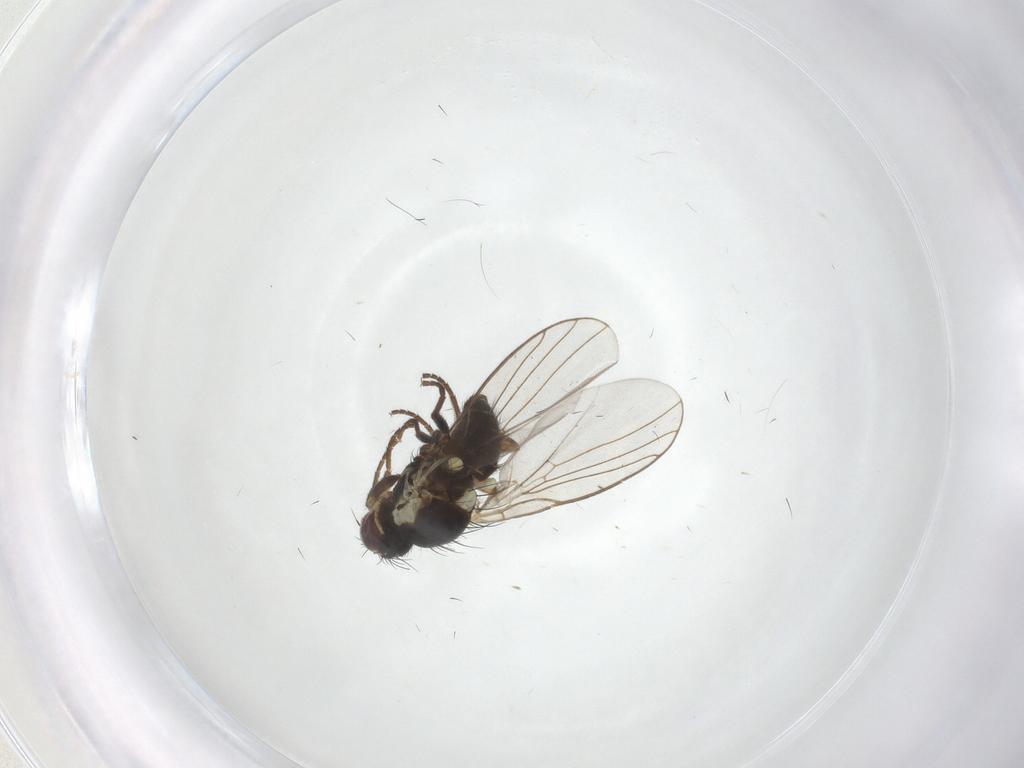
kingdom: Animalia
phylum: Arthropoda
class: Insecta
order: Diptera
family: Agromyzidae
